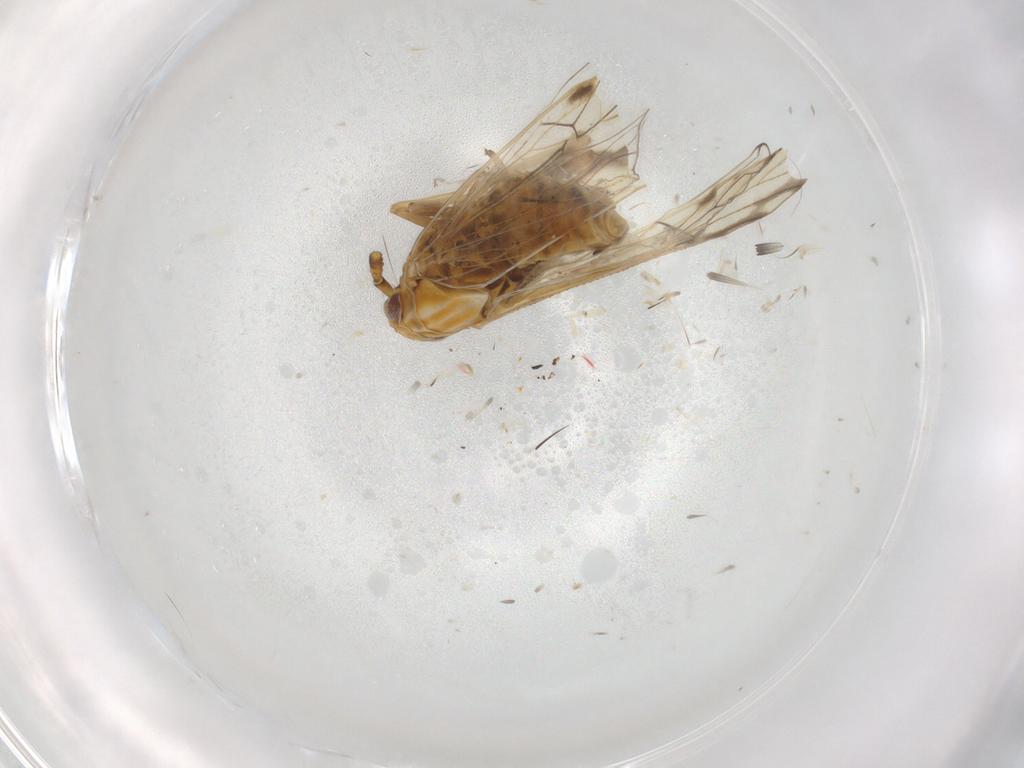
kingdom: Animalia
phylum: Arthropoda
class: Insecta
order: Hemiptera
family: Delphacidae
